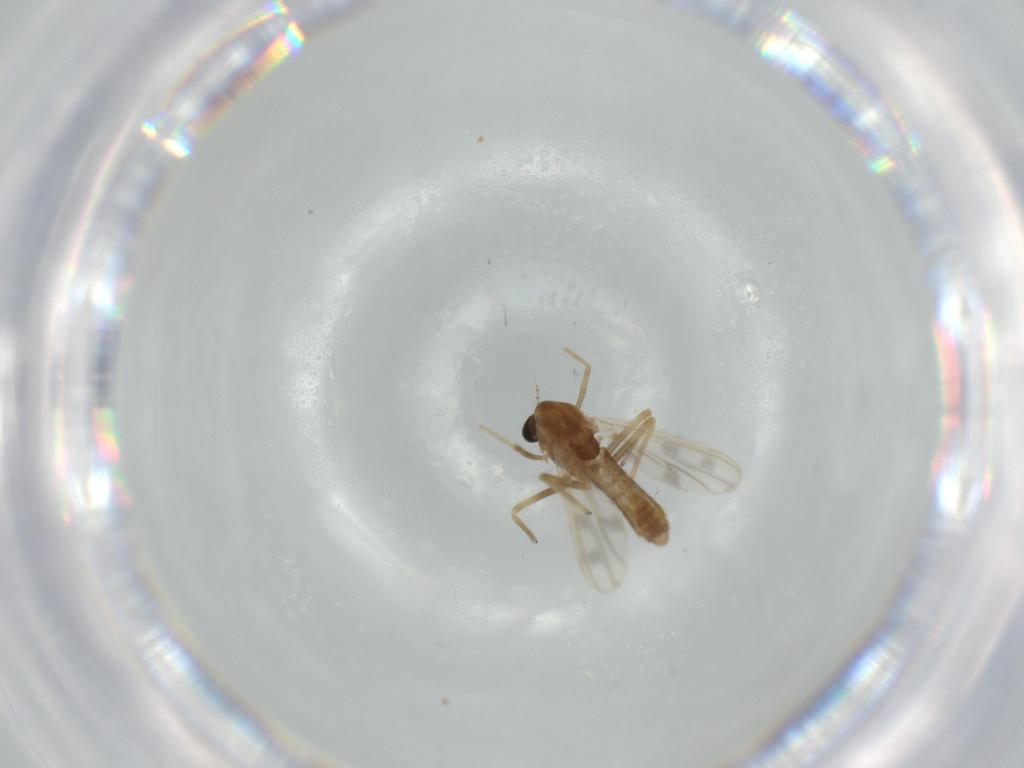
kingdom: Animalia
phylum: Arthropoda
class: Insecta
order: Diptera
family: Chironomidae
